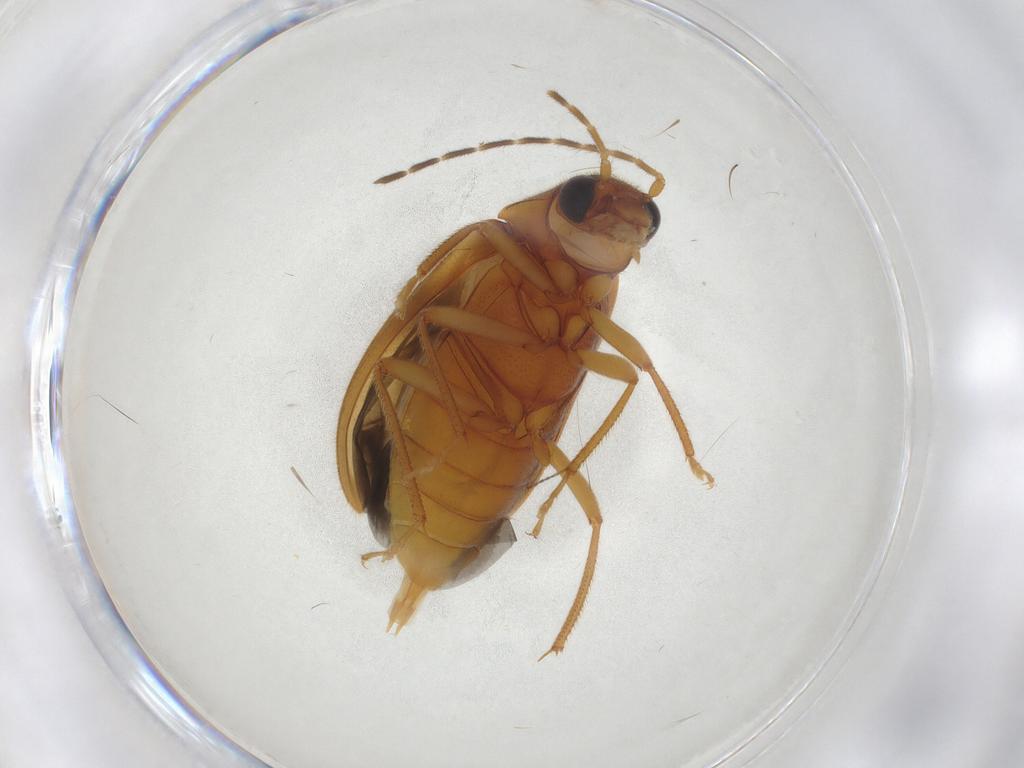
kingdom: Animalia
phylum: Arthropoda
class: Insecta
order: Coleoptera
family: Ptilodactylidae
